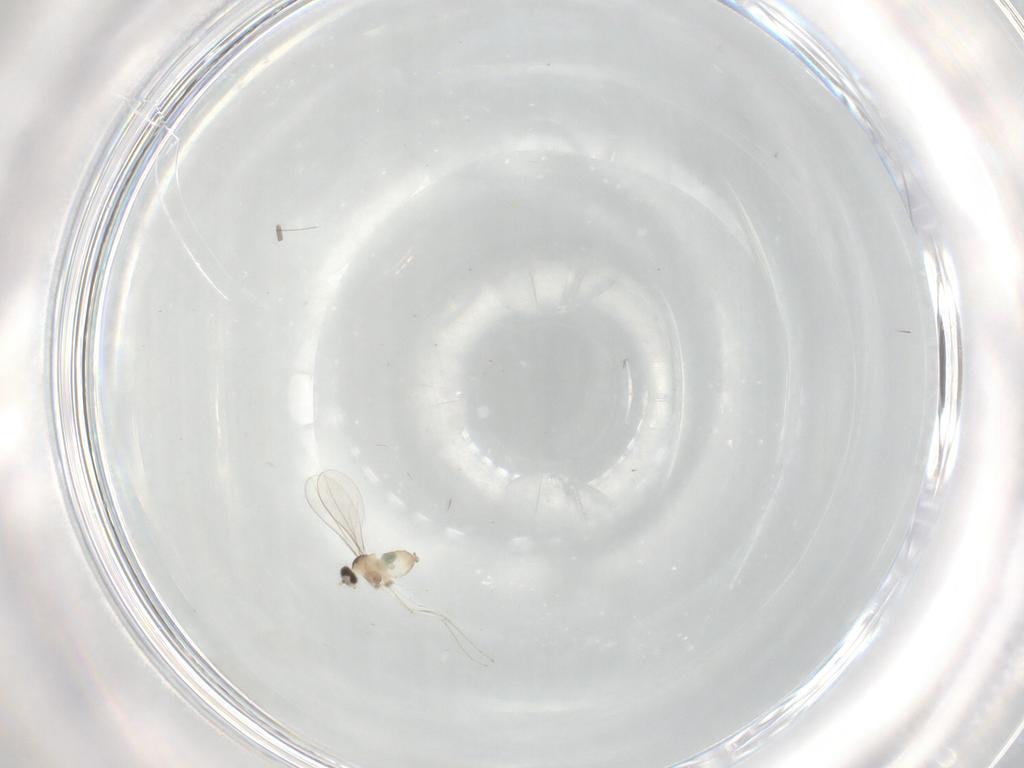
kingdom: Animalia
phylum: Arthropoda
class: Insecta
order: Diptera
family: Cecidomyiidae
